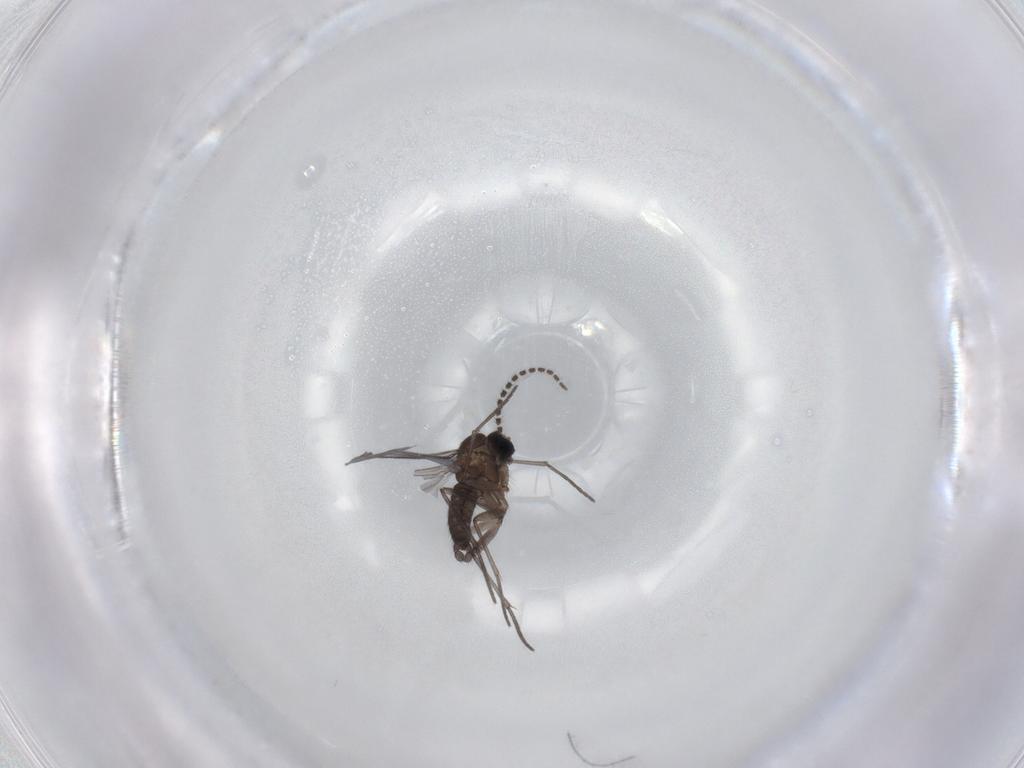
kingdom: Animalia
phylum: Arthropoda
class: Insecta
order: Diptera
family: Sciaridae
